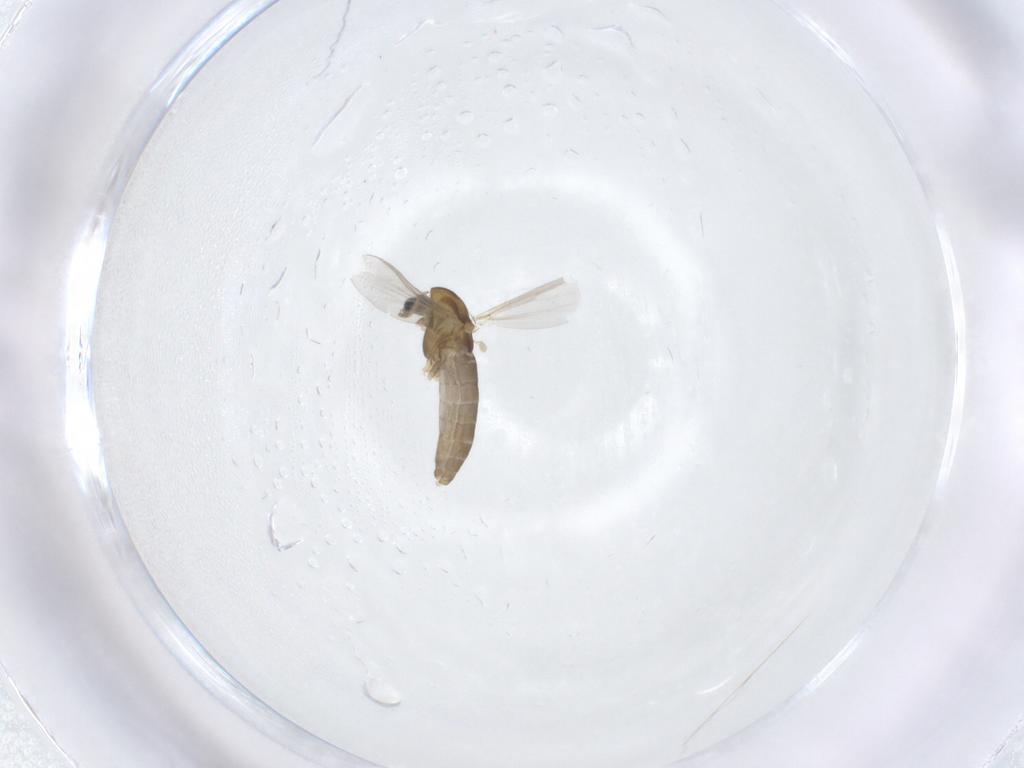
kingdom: Animalia
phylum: Arthropoda
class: Insecta
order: Diptera
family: Chironomidae
